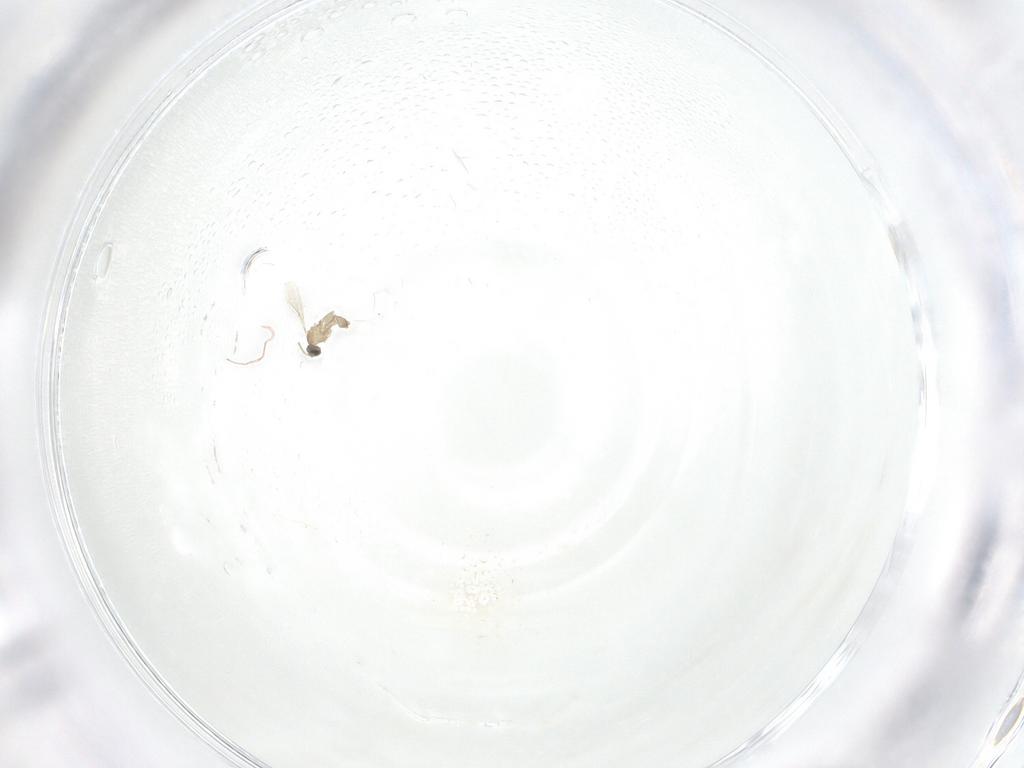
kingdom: Animalia
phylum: Arthropoda
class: Insecta
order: Diptera
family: Cecidomyiidae
